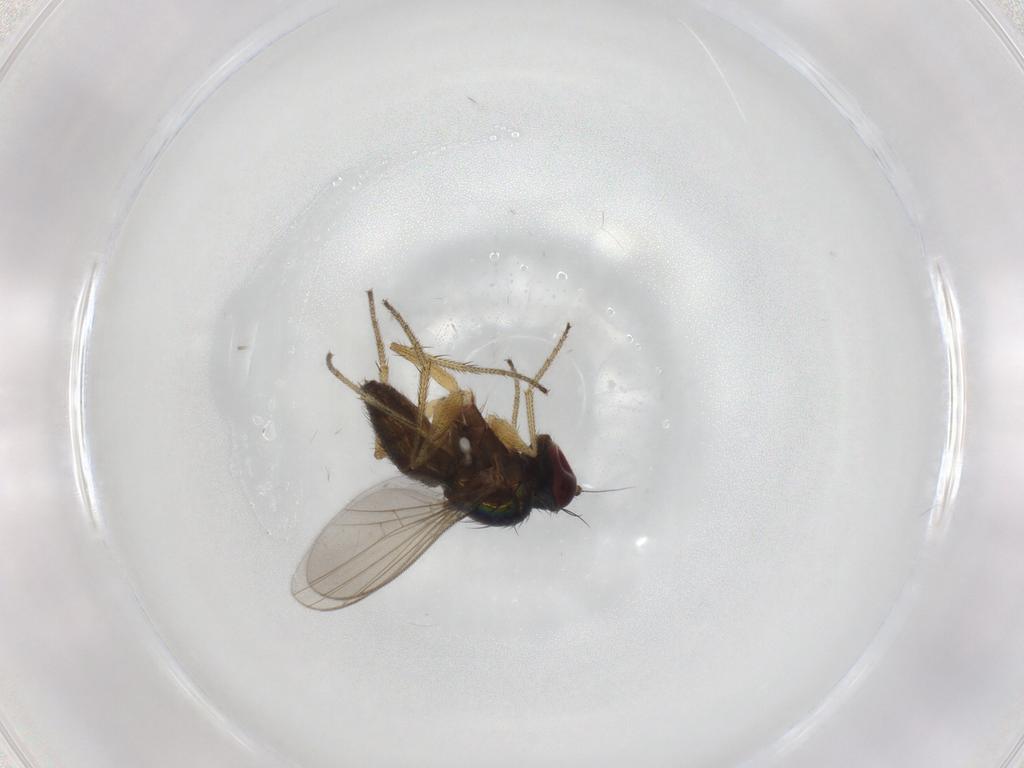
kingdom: Animalia
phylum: Arthropoda
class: Insecta
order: Diptera
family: Dolichopodidae
